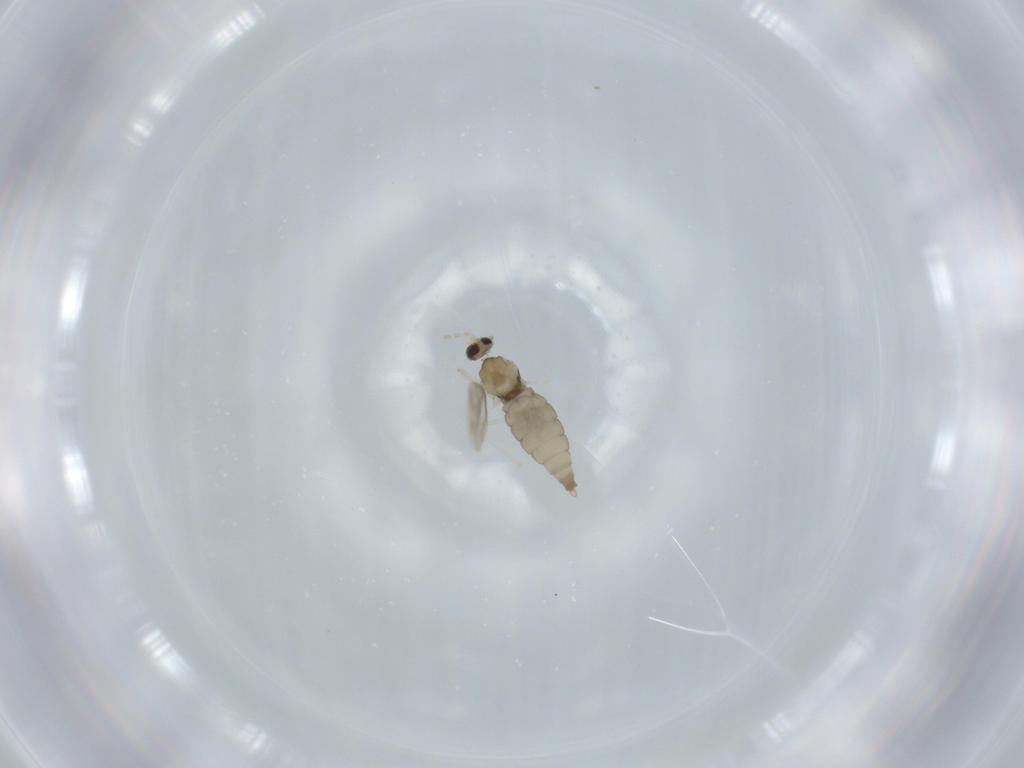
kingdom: Animalia
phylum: Arthropoda
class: Insecta
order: Diptera
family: Cecidomyiidae
